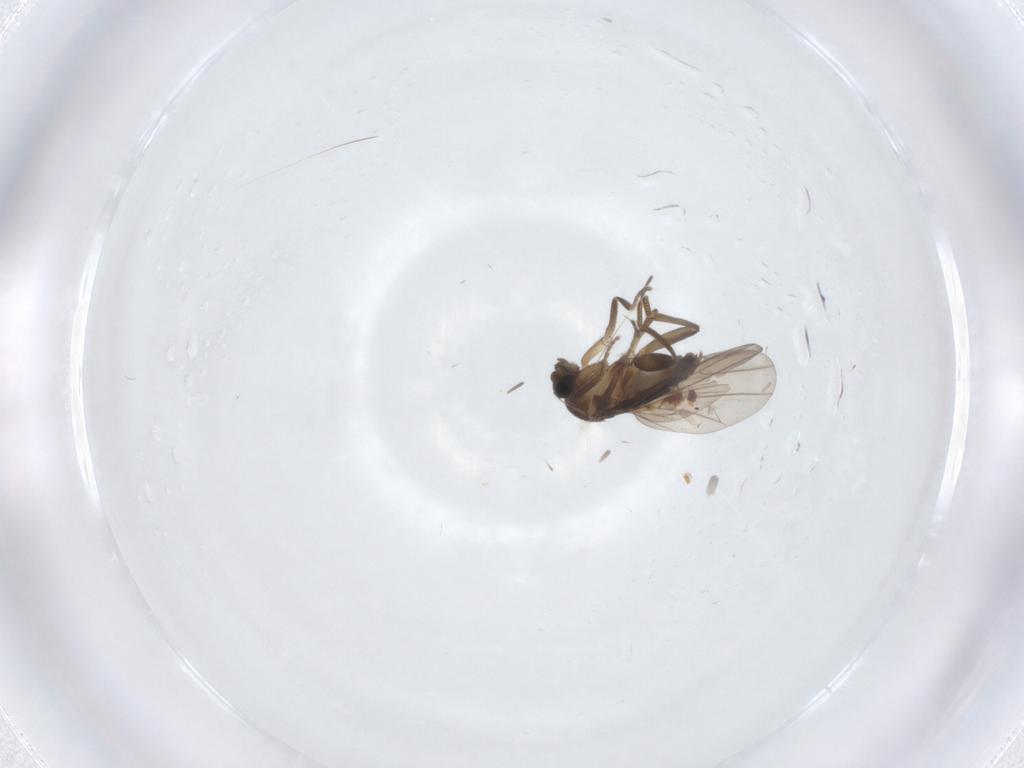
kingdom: Animalia
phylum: Arthropoda
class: Insecta
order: Diptera
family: Phoridae
